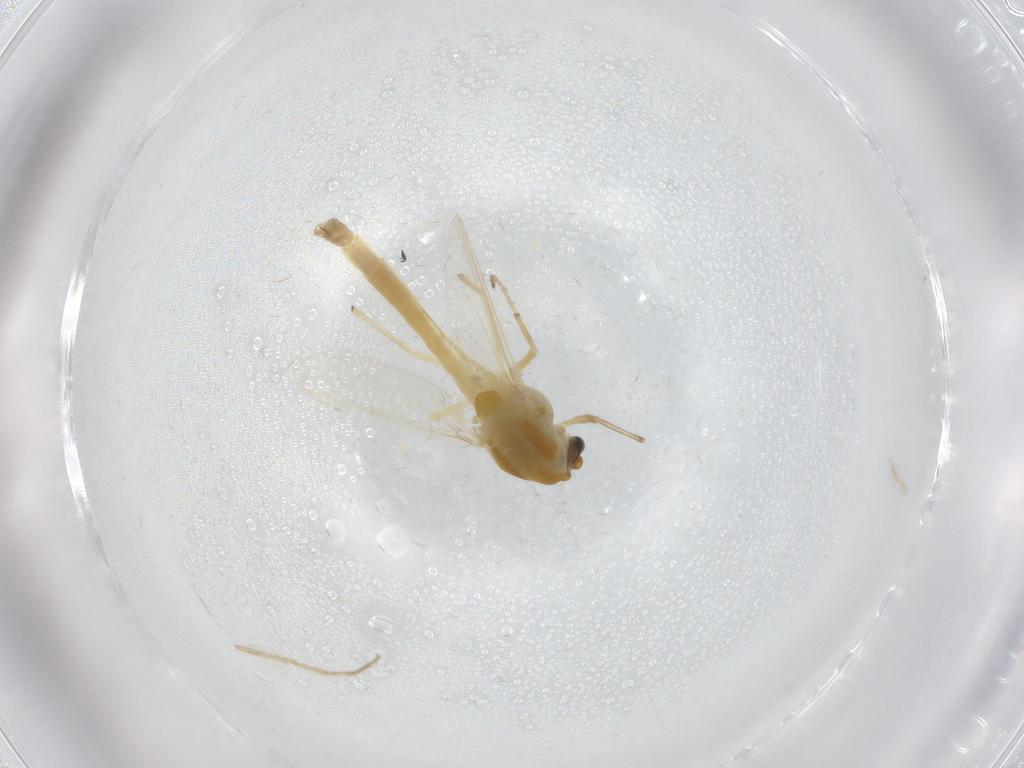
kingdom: Animalia
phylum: Arthropoda
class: Insecta
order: Diptera
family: Chironomidae
